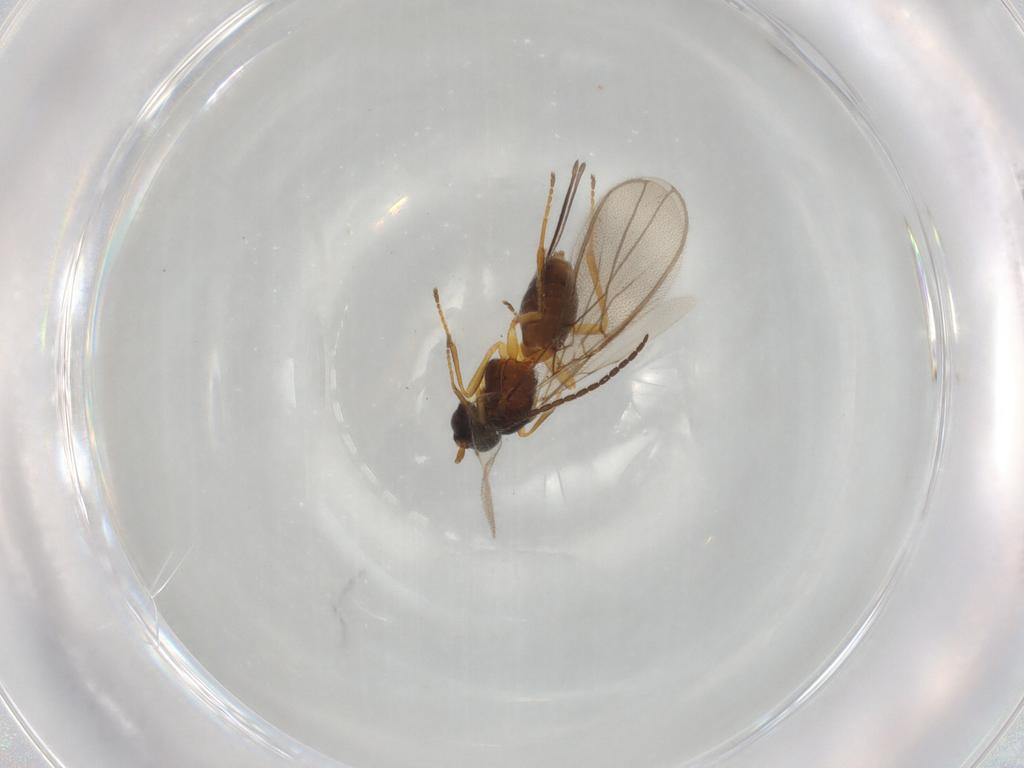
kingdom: Animalia
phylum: Arthropoda
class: Insecta
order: Hymenoptera
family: Braconidae
